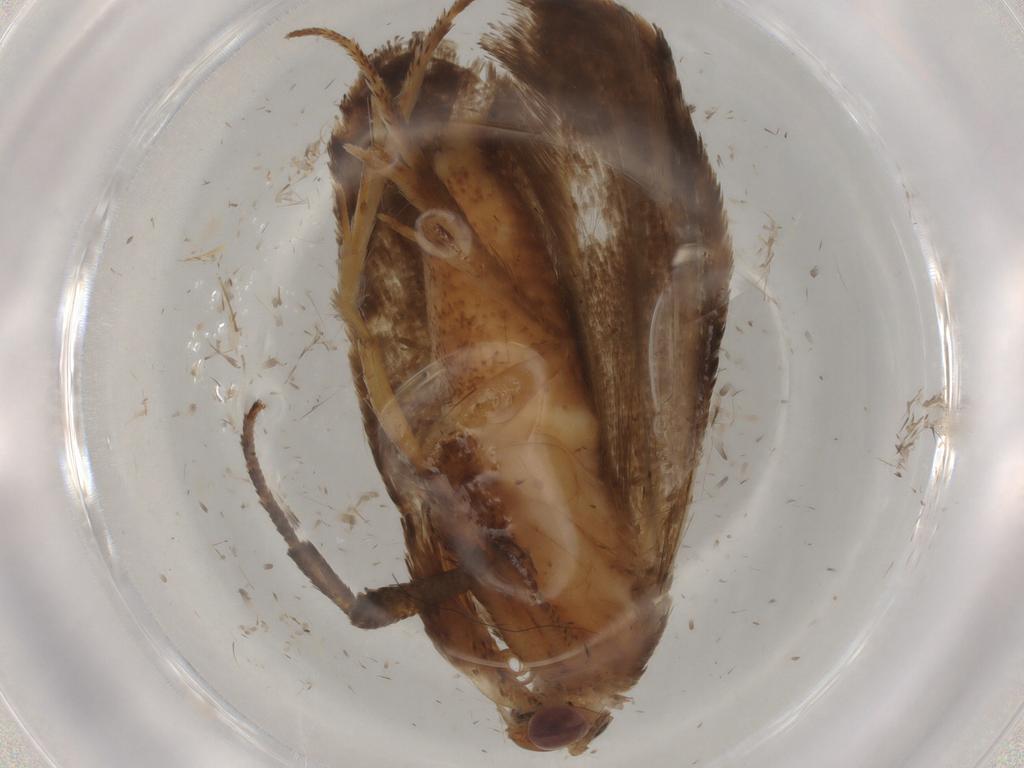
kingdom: Animalia
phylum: Arthropoda
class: Insecta
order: Lepidoptera
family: Gelechiidae
